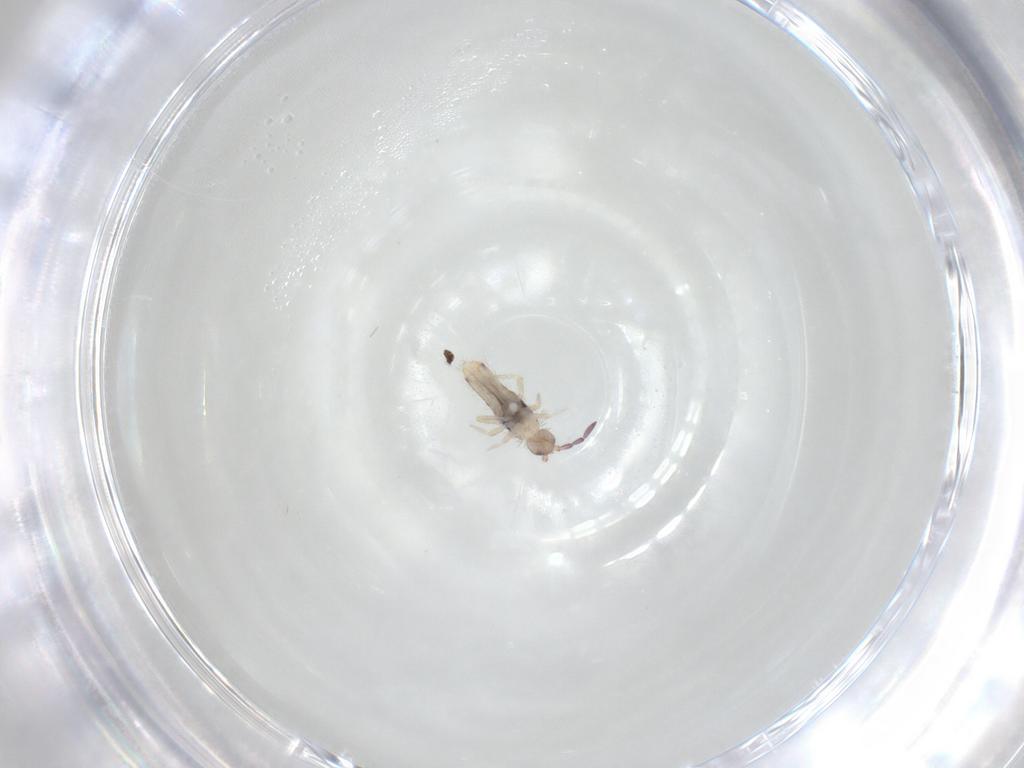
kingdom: Animalia
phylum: Arthropoda
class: Collembola
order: Entomobryomorpha
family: Entomobryidae
